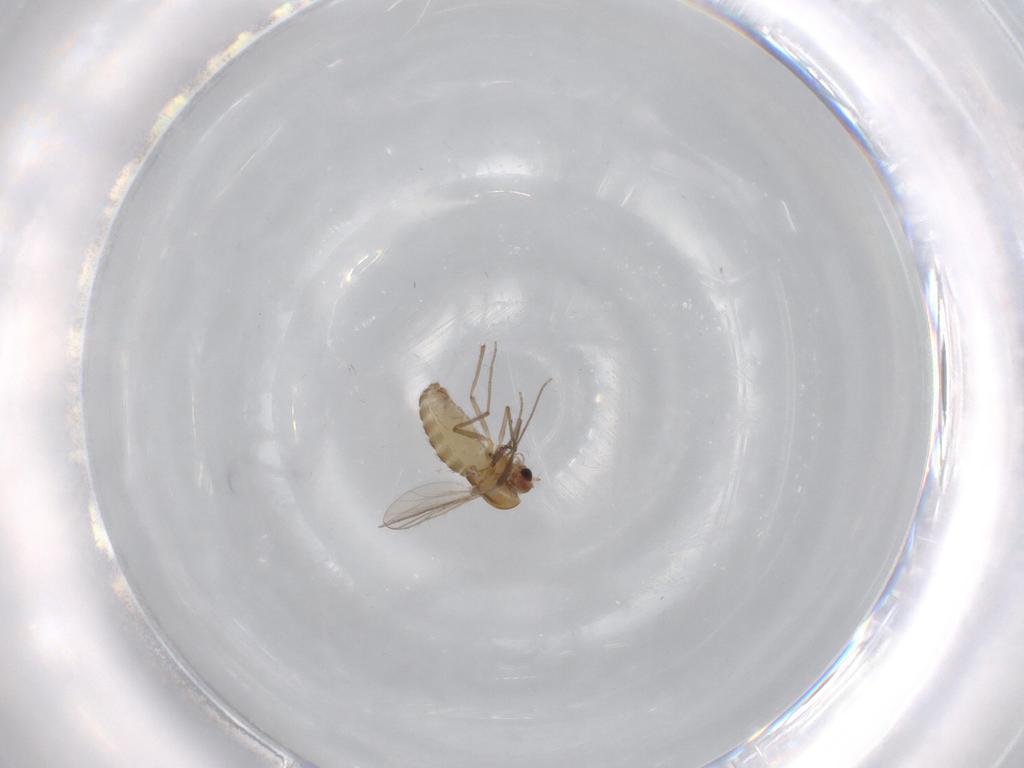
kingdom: Animalia
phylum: Arthropoda
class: Insecta
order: Diptera
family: Chironomidae
